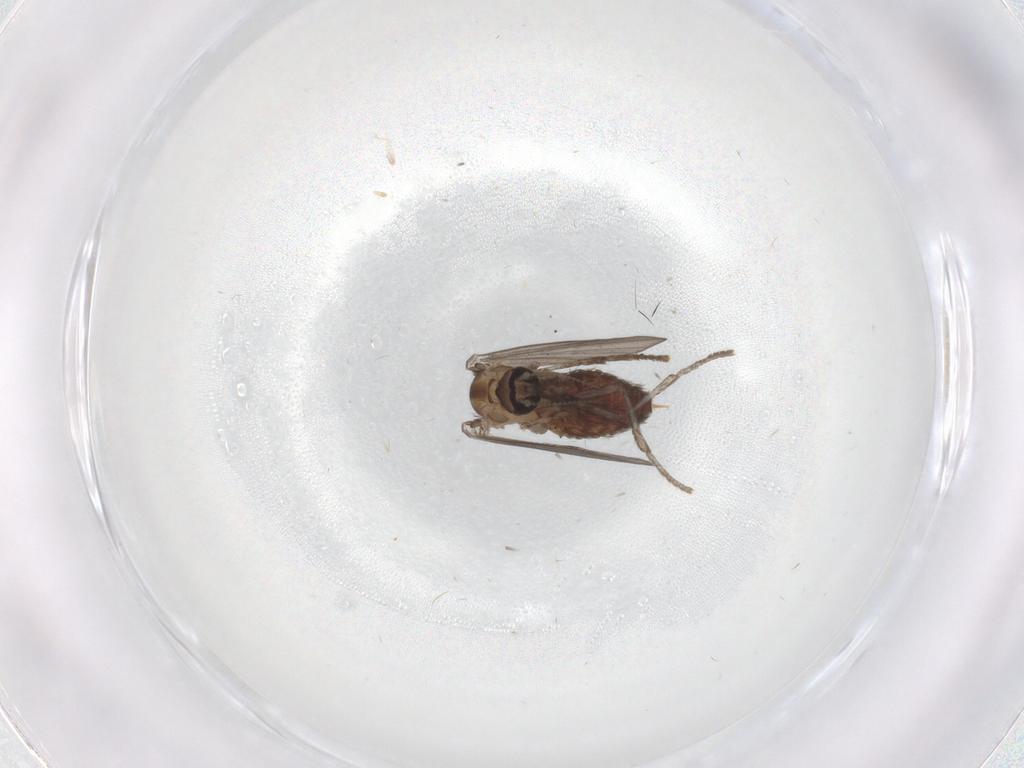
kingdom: Animalia
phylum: Arthropoda
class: Insecta
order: Diptera
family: Psychodidae
